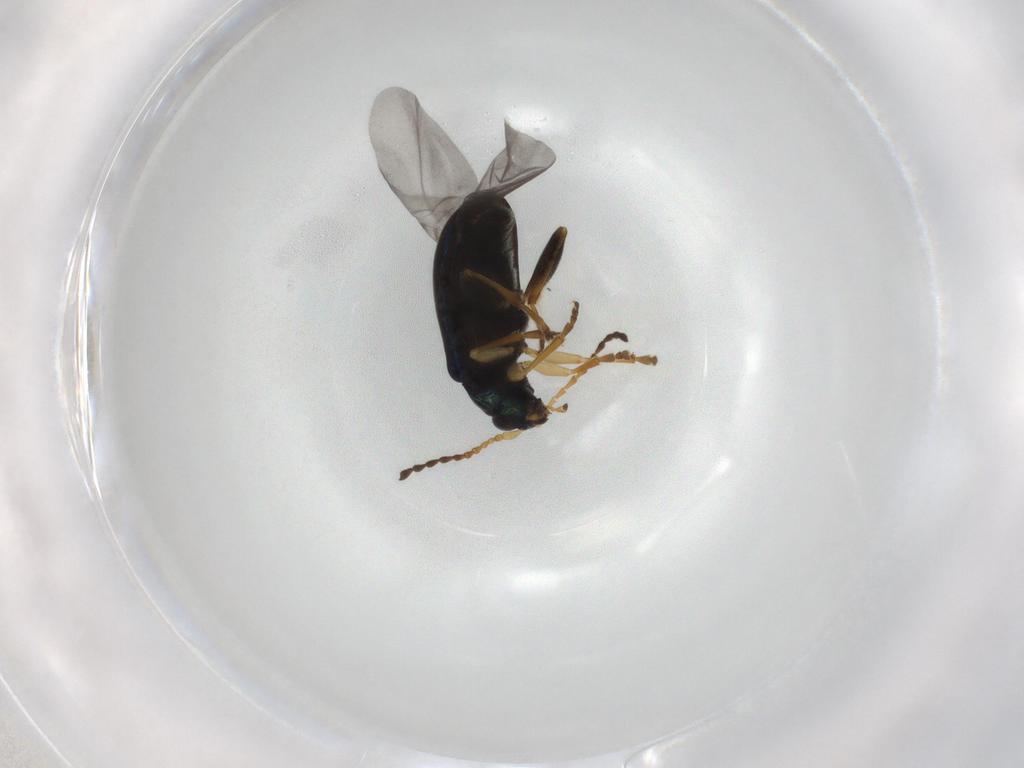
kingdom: Animalia
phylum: Arthropoda
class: Insecta
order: Coleoptera
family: Chrysomelidae
